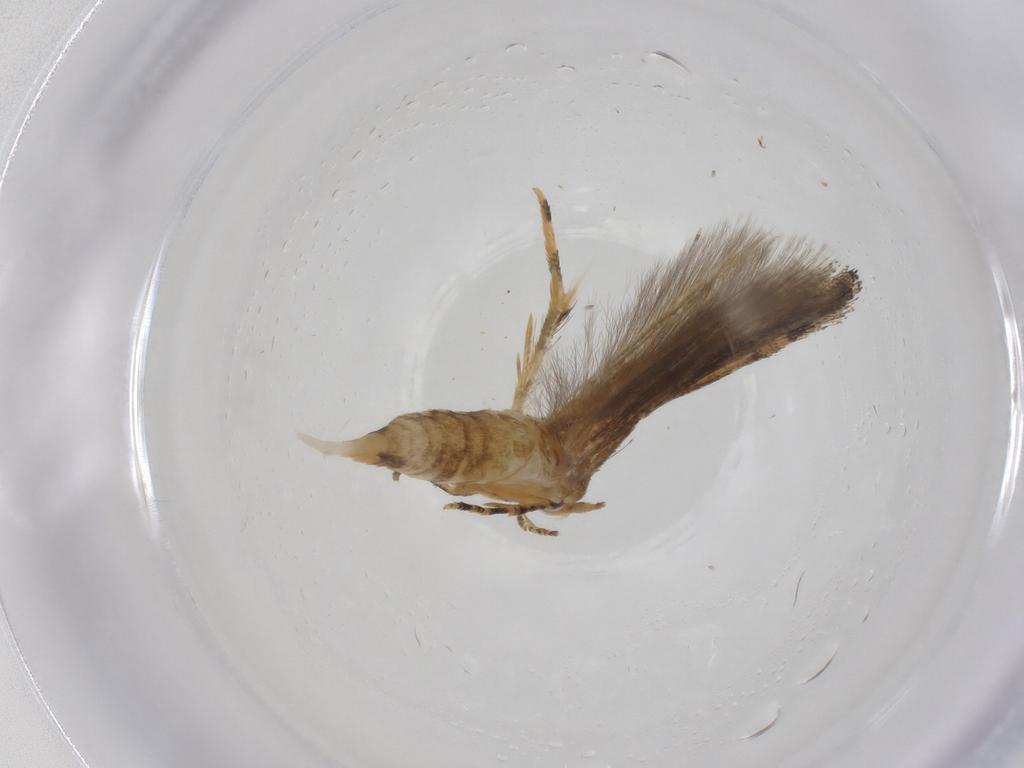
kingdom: Animalia
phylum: Arthropoda
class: Insecta
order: Lepidoptera
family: Momphidae
